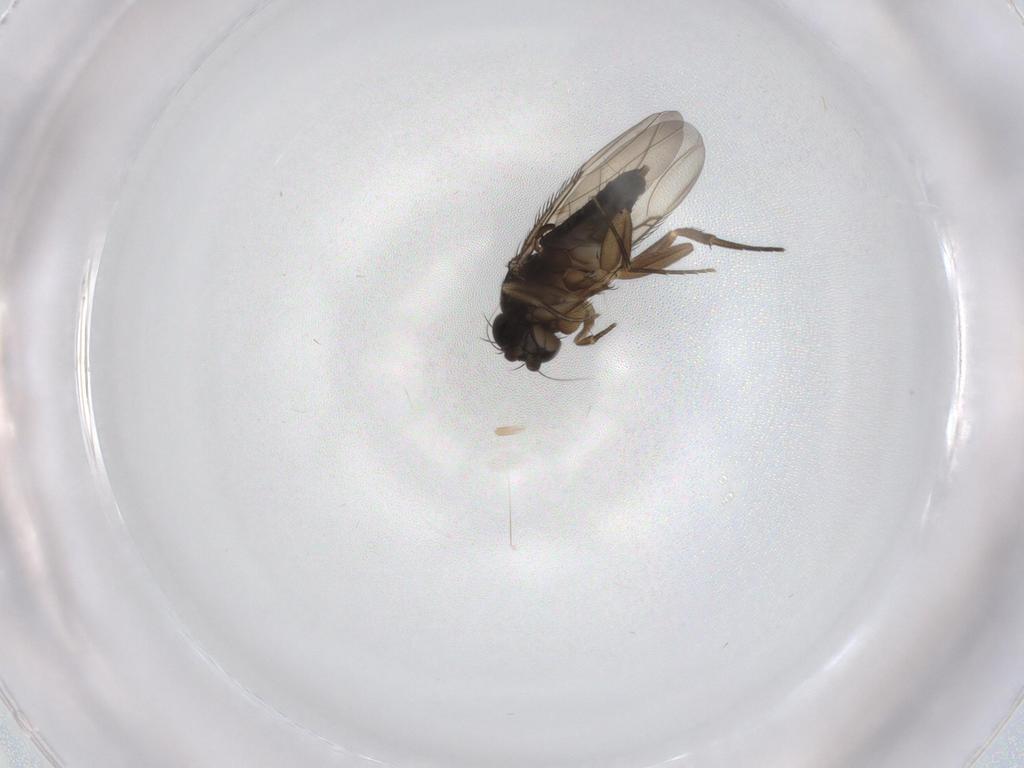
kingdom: Animalia
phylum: Arthropoda
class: Insecta
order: Diptera
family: Phoridae
